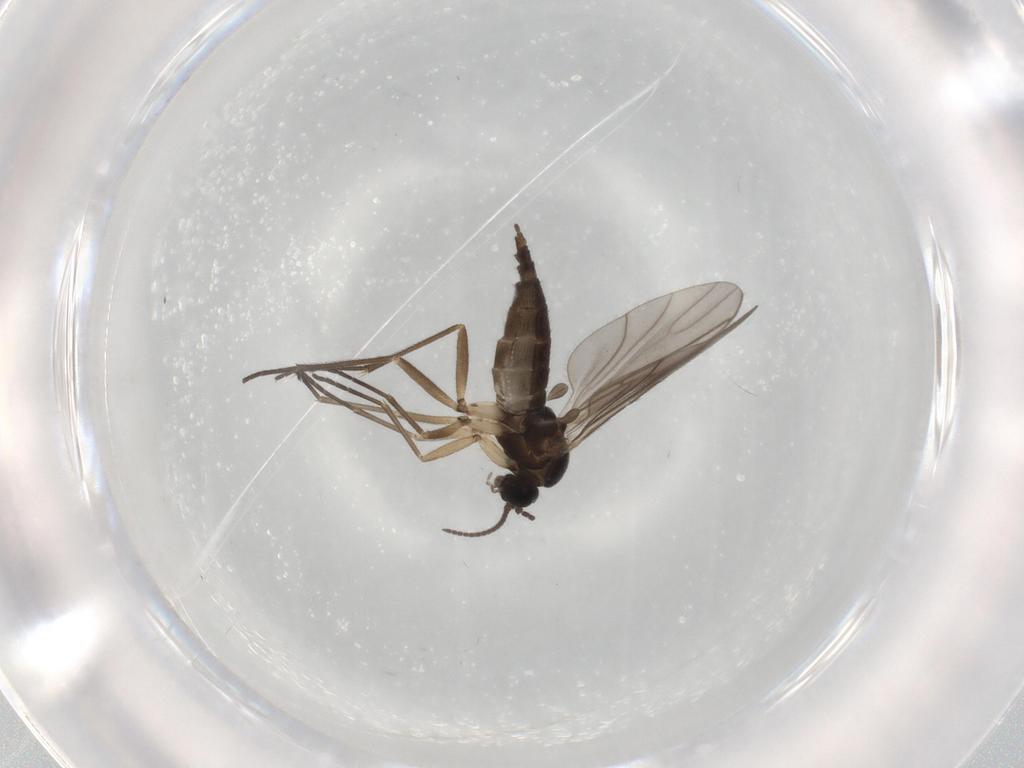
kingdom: Animalia
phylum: Arthropoda
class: Insecta
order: Diptera
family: Sciaridae
